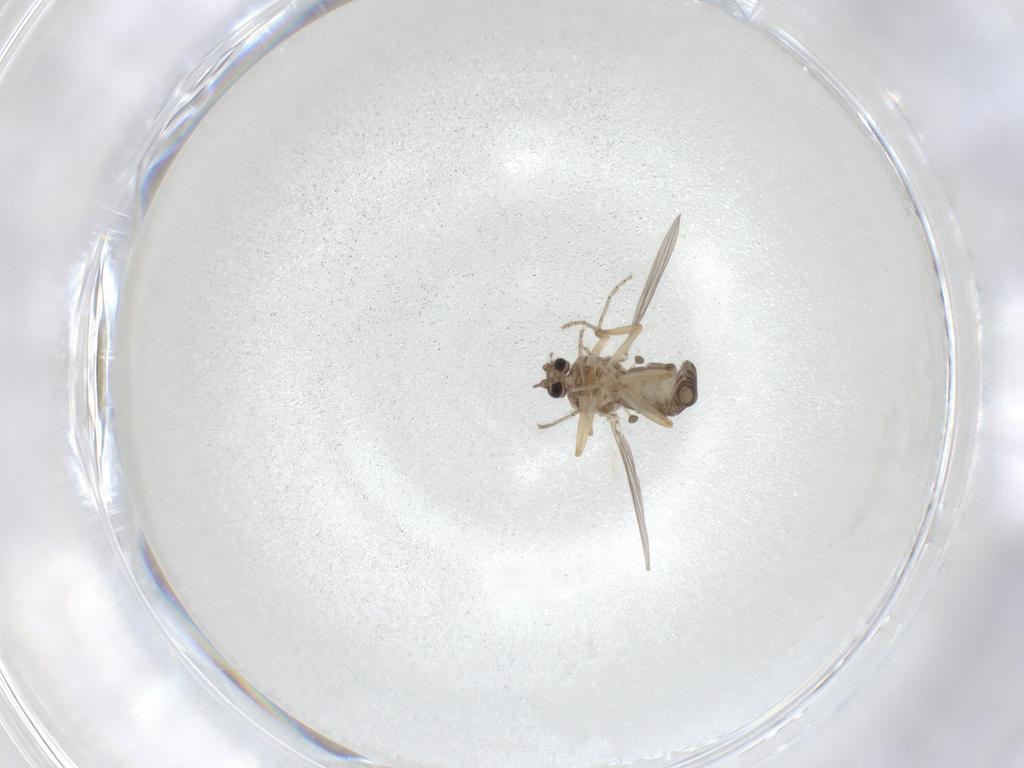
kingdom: Animalia
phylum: Arthropoda
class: Insecta
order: Diptera
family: Ceratopogonidae
